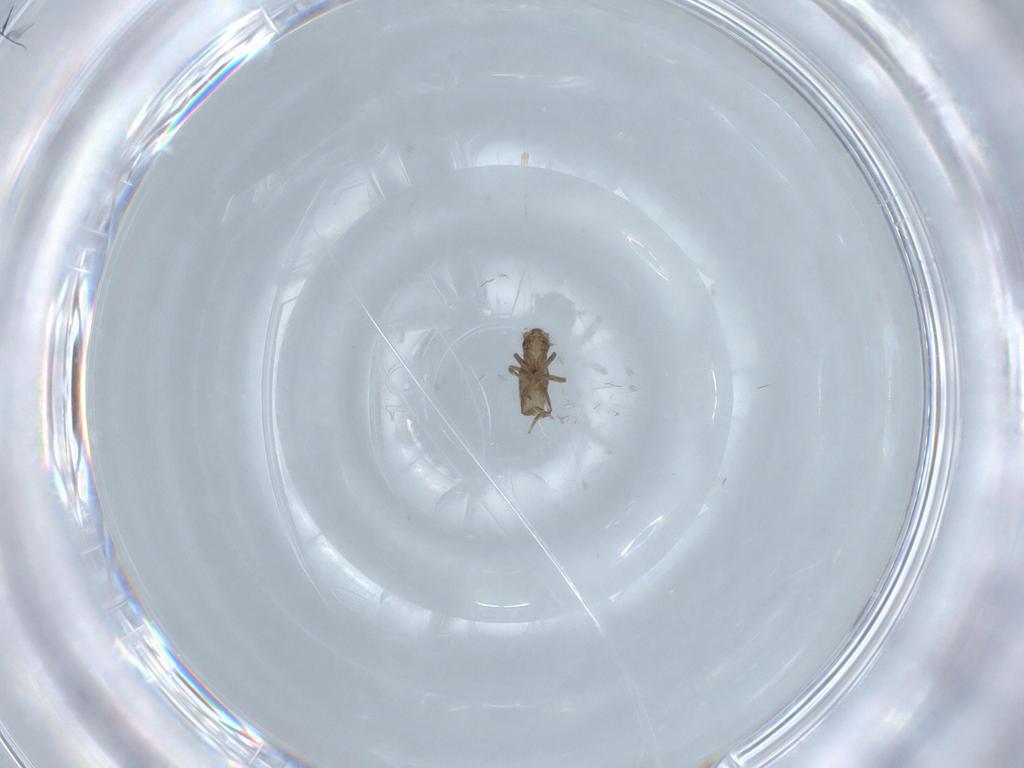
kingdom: Animalia
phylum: Arthropoda
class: Insecta
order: Diptera
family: Phoridae
